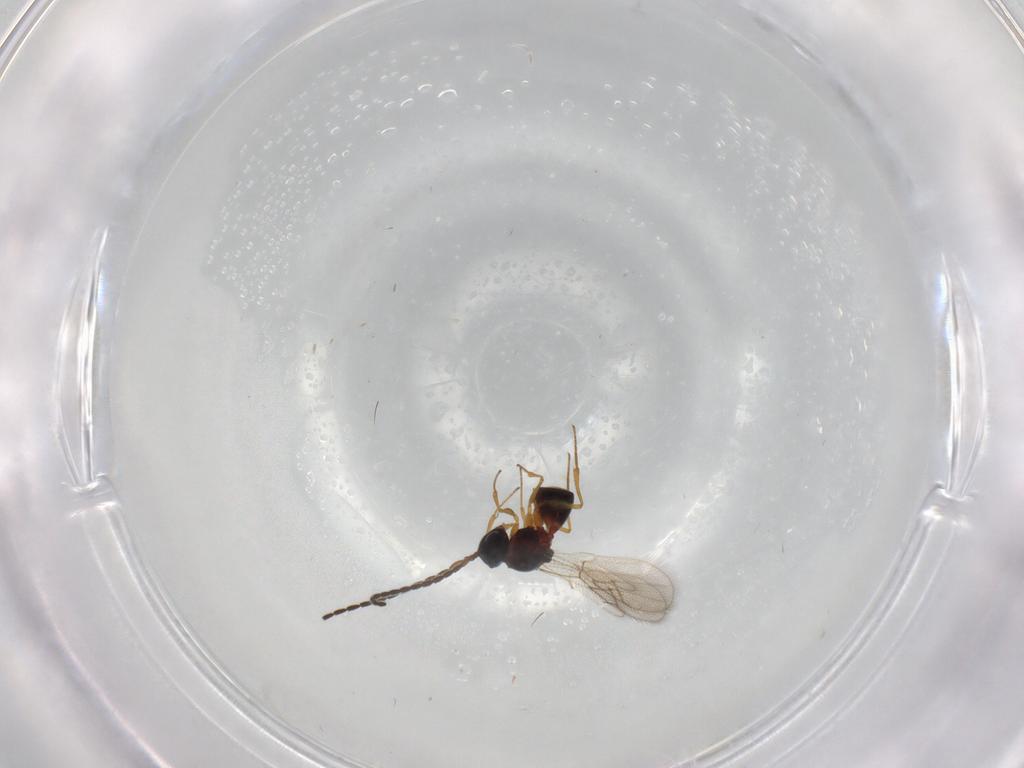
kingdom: Animalia
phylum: Arthropoda
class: Insecta
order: Hymenoptera
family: Figitidae
